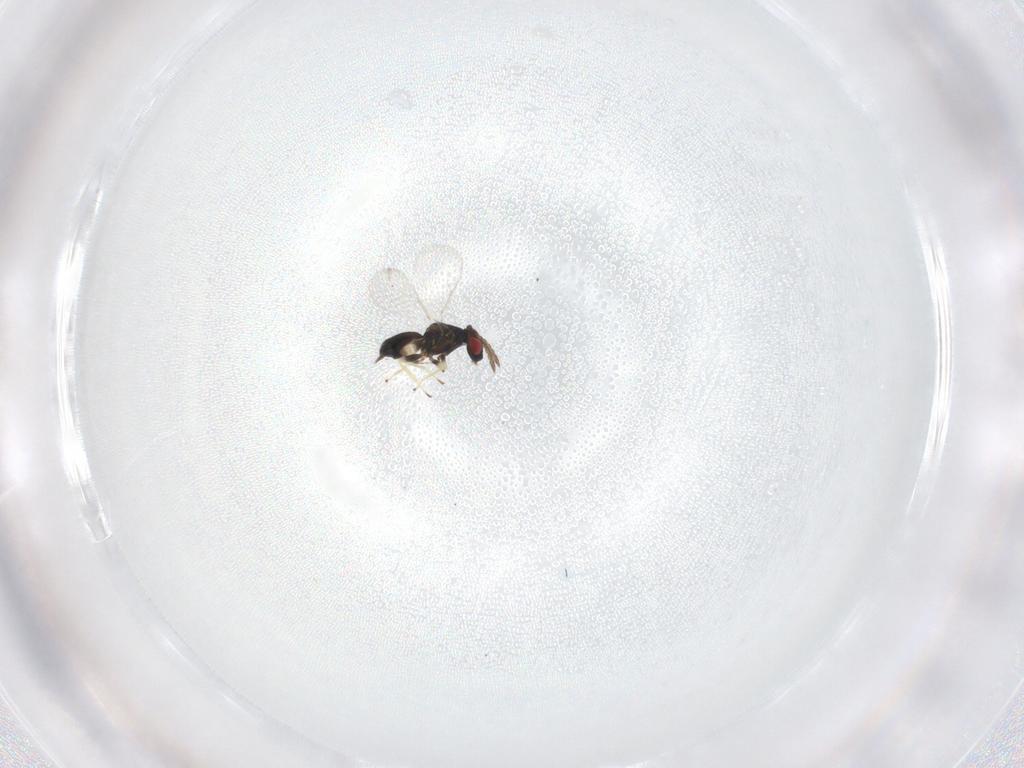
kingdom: Animalia
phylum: Arthropoda
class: Insecta
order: Hymenoptera
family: Eulophidae
